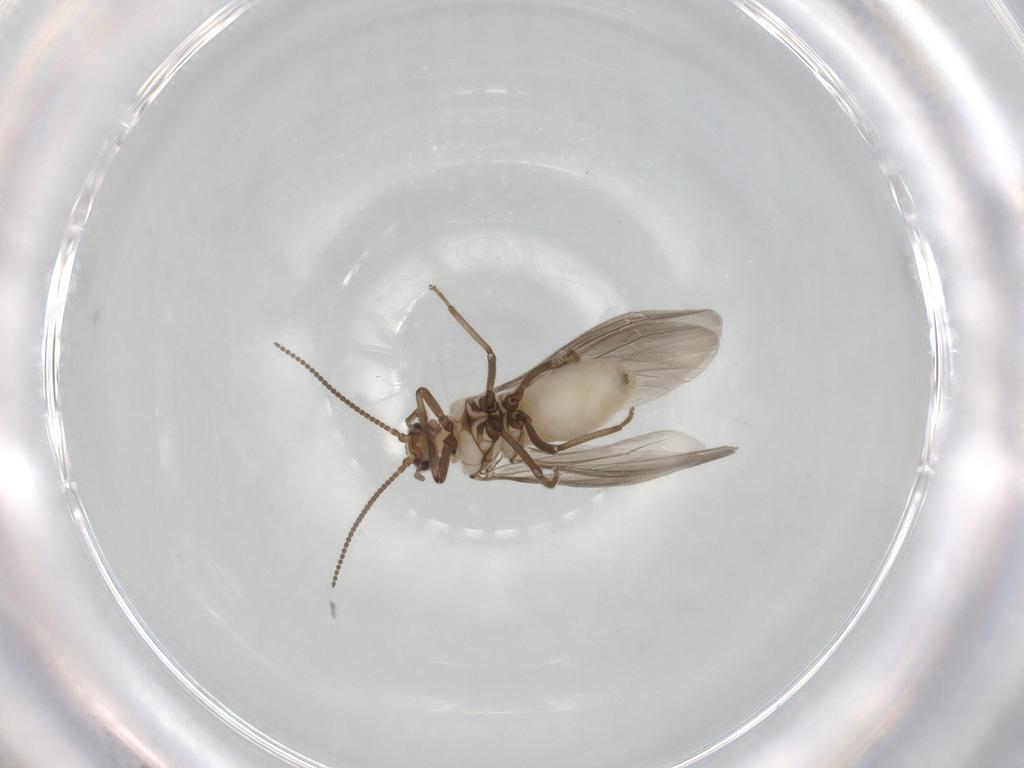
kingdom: Animalia
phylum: Arthropoda
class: Insecta
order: Neuroptera
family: Coniopterygidae
